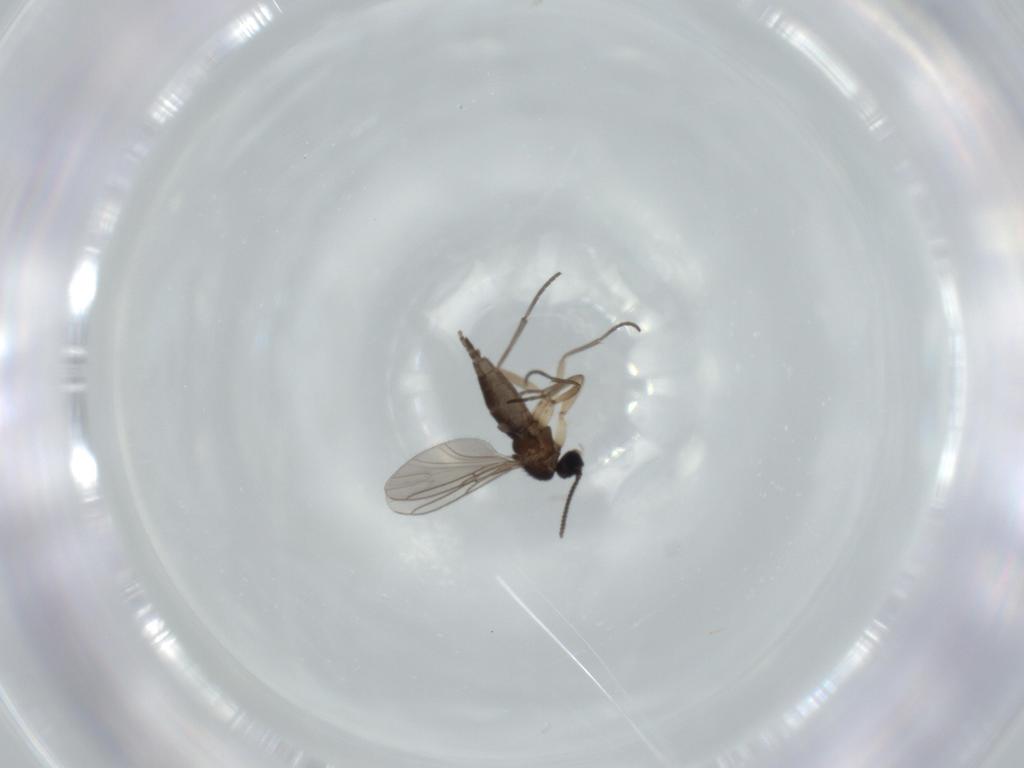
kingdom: Animalia
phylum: Arthropoda
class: Insecta
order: Diptera
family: Sciaridae
